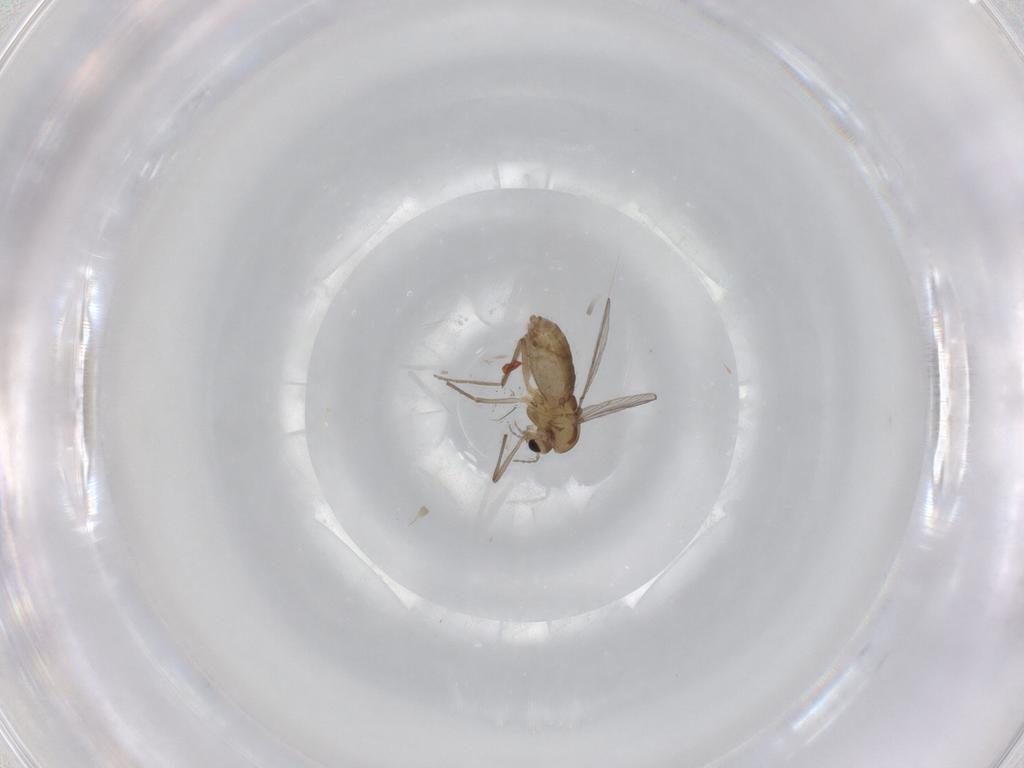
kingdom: Animalia
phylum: Arthropoda
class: Insecta
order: Diptera
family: Chironomidae
